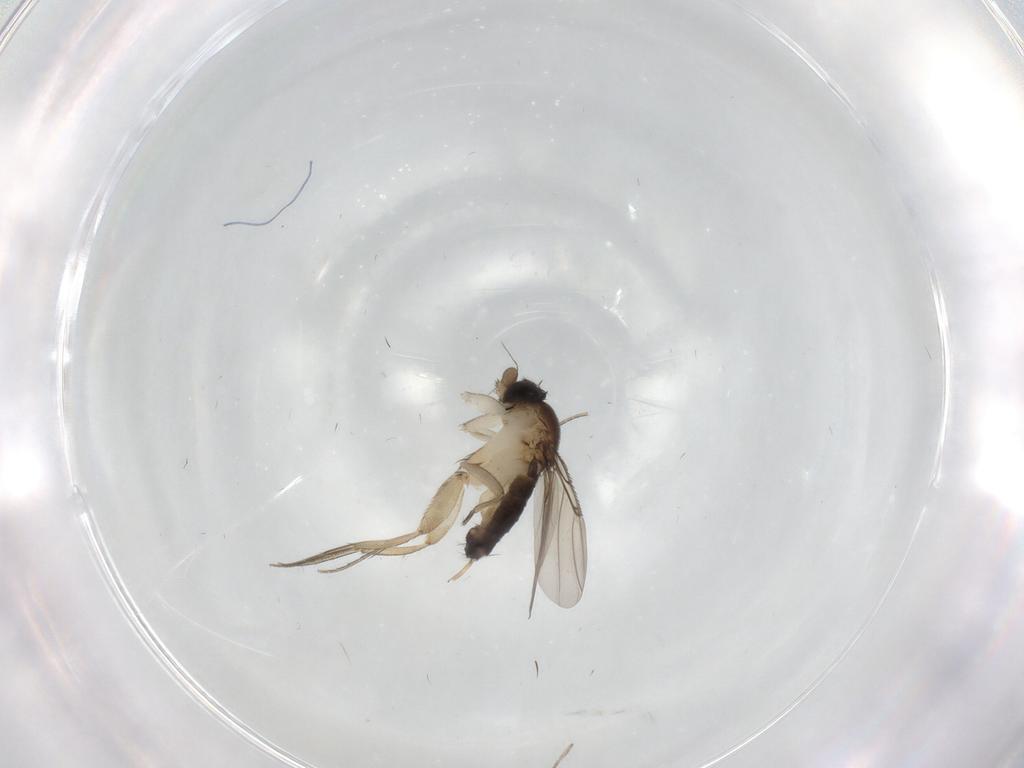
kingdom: Animalia
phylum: Arthropoda
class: Insecta
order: Diptera
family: Phoridae
